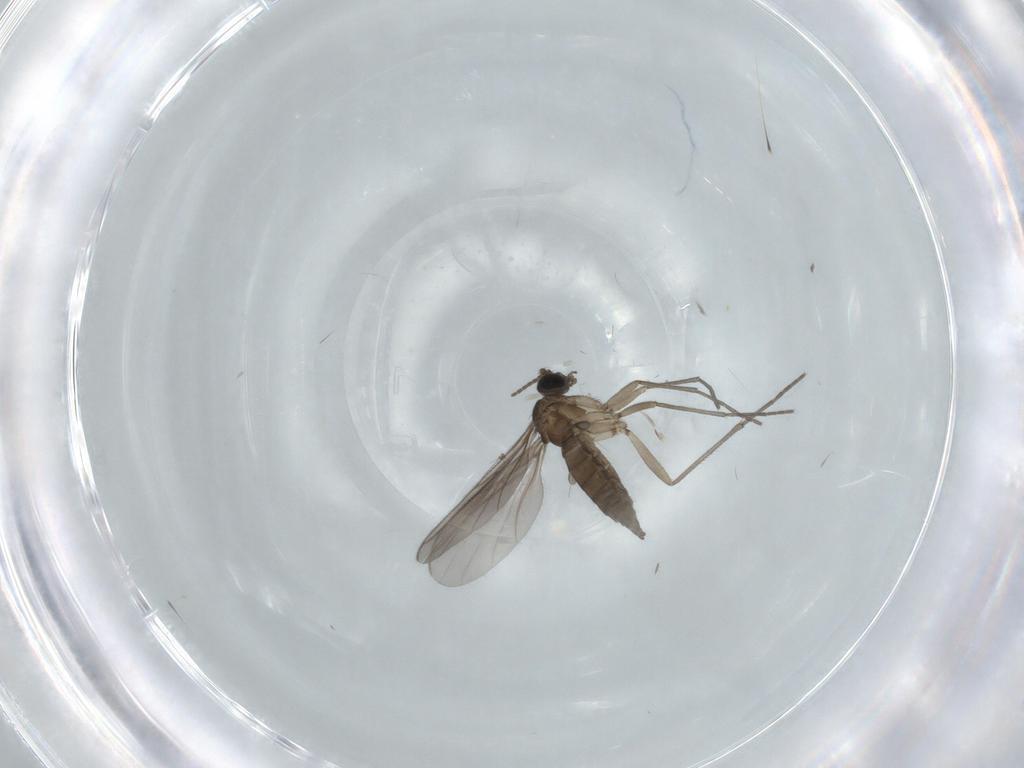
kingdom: Animalia
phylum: Arthropoda
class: Insecta
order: Diptera
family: Sciaridae
